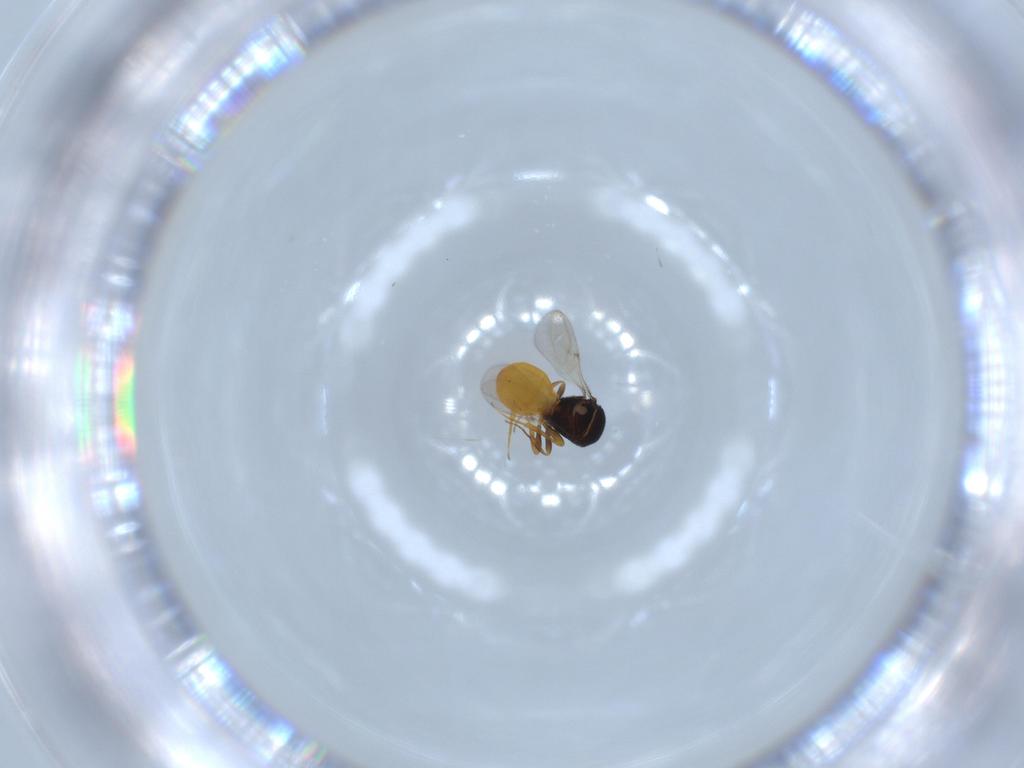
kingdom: Animalia
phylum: Arthropoda
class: Insecta
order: Hymenoptera
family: Scelionidae
